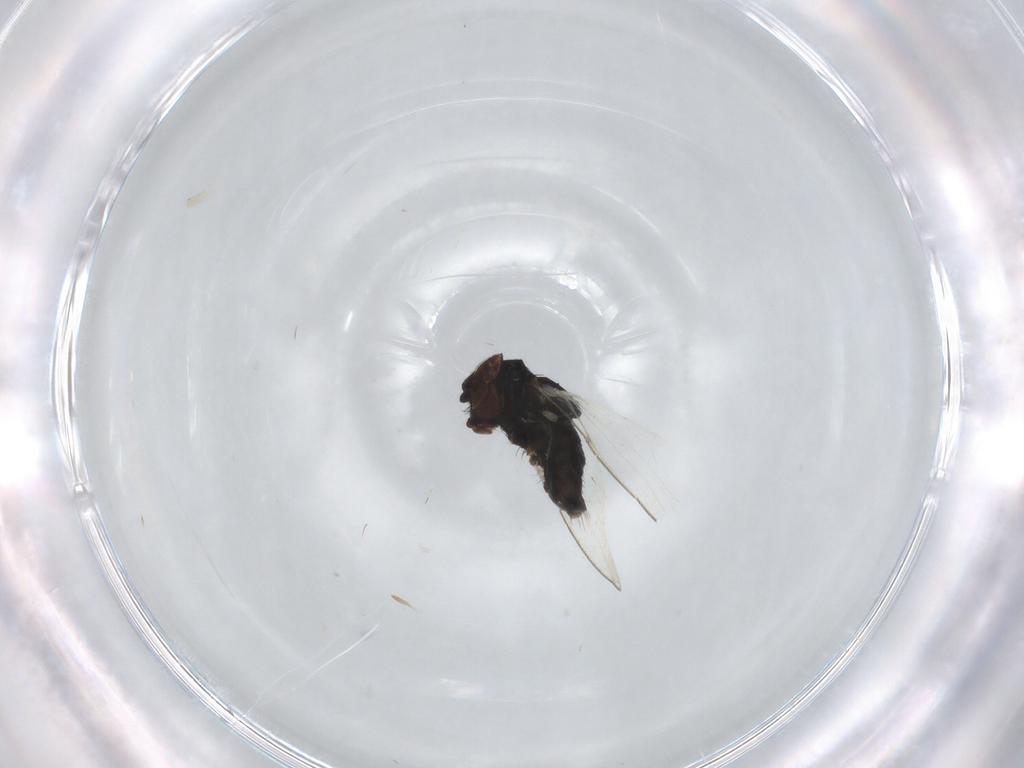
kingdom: Animalia
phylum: Arthropoda
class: Insecta
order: Diptera
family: Milichiidae
